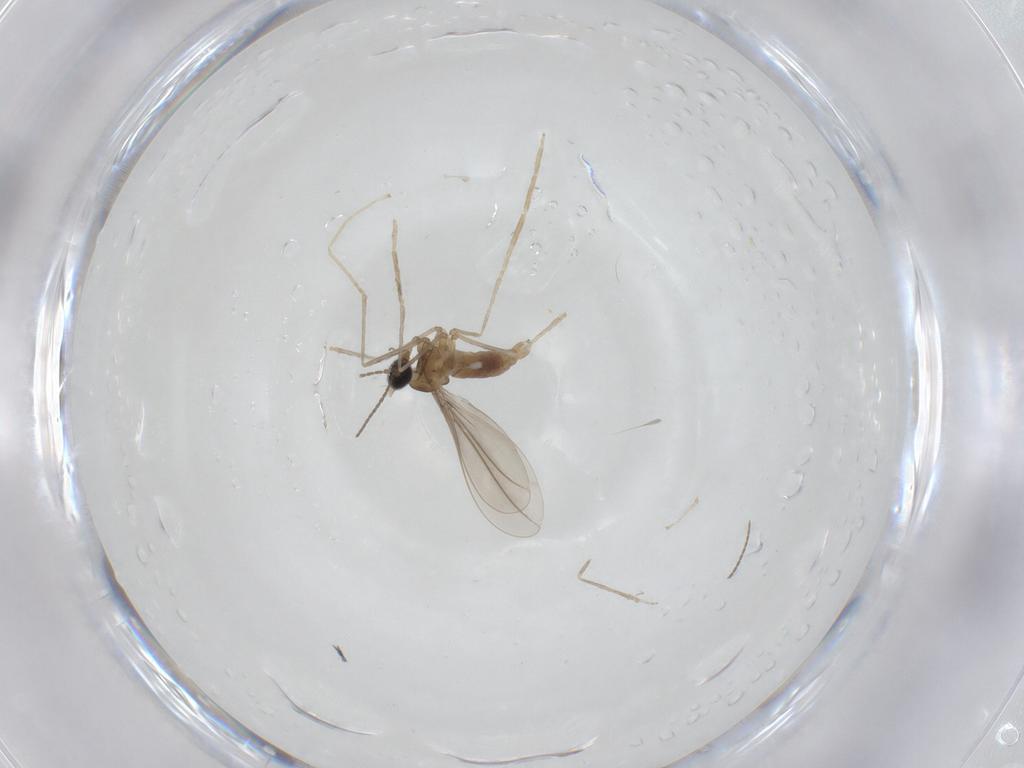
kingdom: Animalia
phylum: Arthropoda
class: Insecta
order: Diptera
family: Cecidomyiidae
